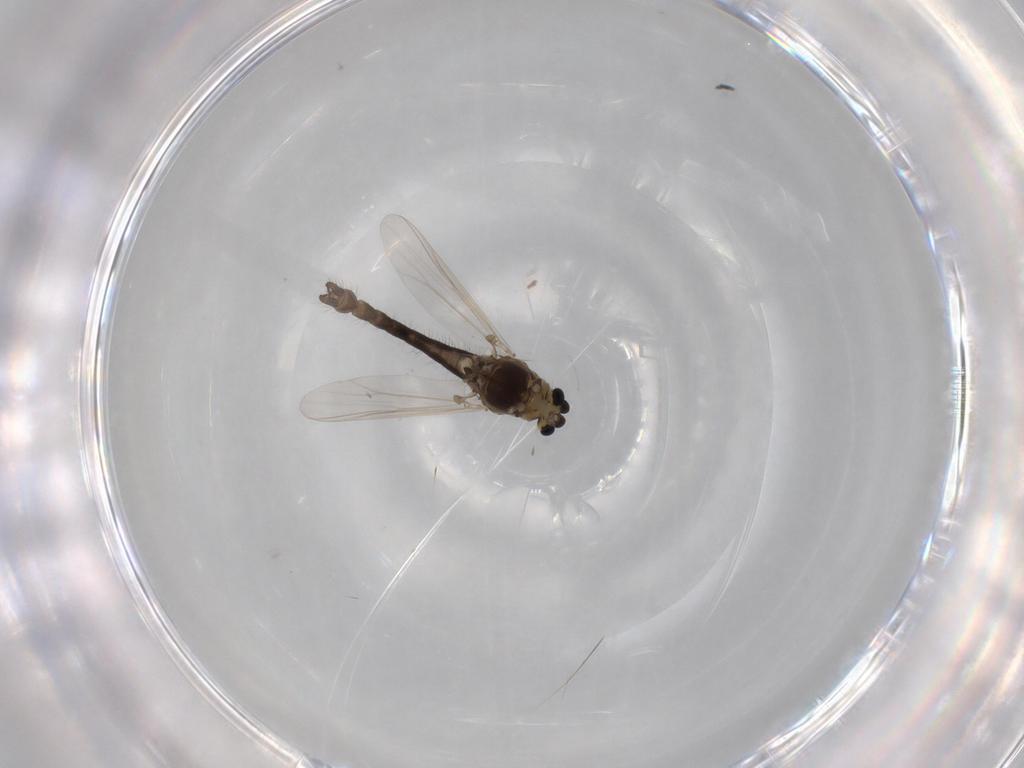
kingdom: Animalia
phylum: Arthropoda
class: Insecta
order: Diptera
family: Chironomidae
